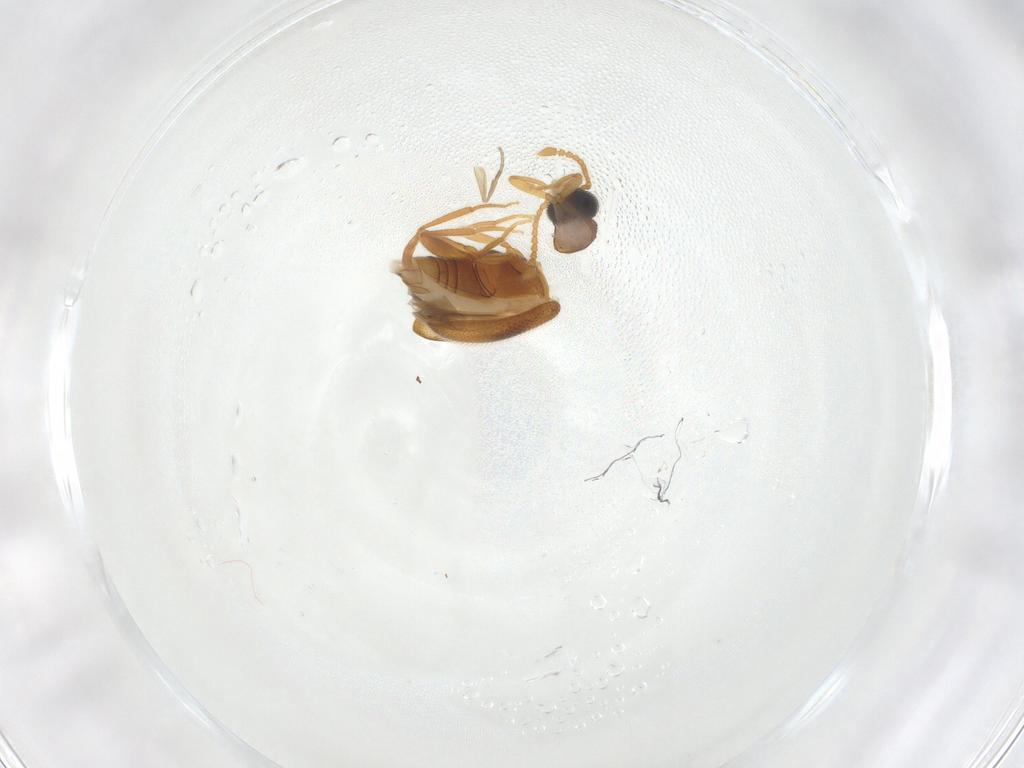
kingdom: Animalia
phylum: Arthropoda
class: Insecta
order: Coleoptera
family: Aderidae
